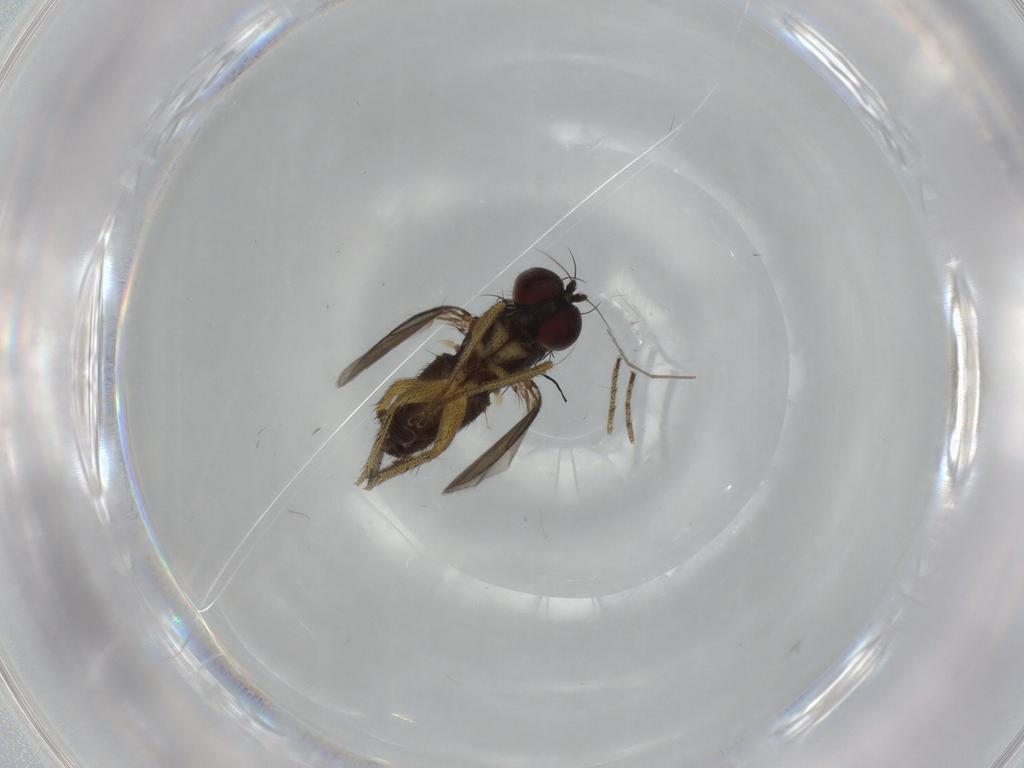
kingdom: Animalia
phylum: Arthropoda
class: Insecta
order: Diptera
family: Dolichopodidae
